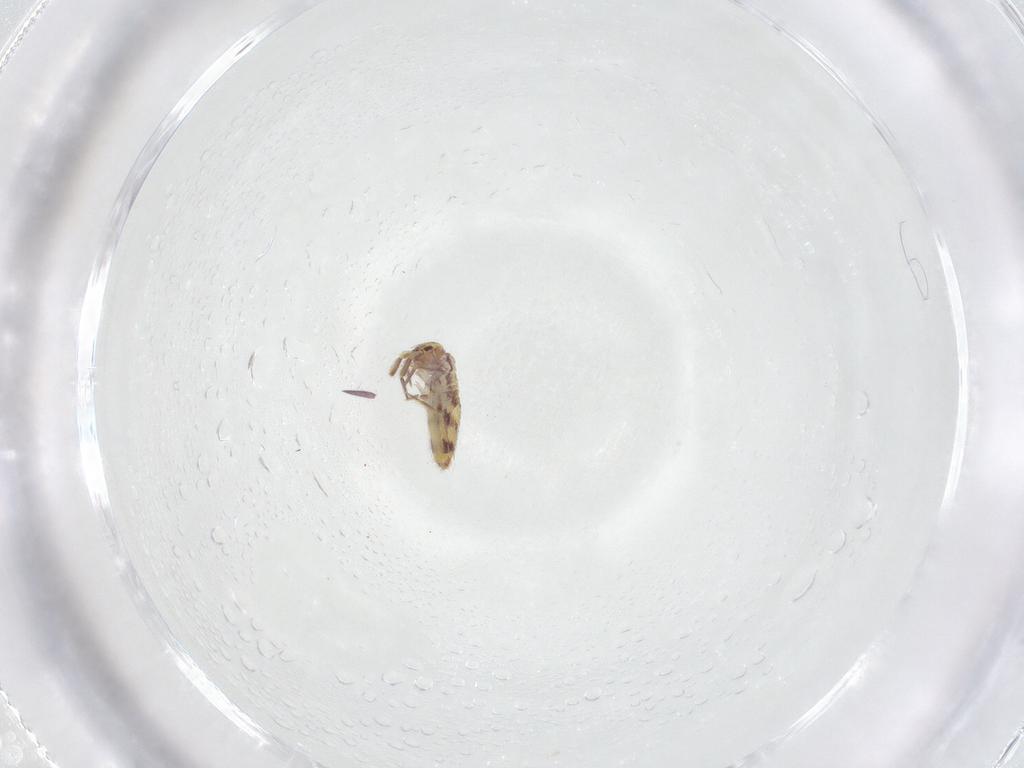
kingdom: Animalia
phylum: Arthropoda
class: Collembola
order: Entomobryomorpha
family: Entomobryidae
